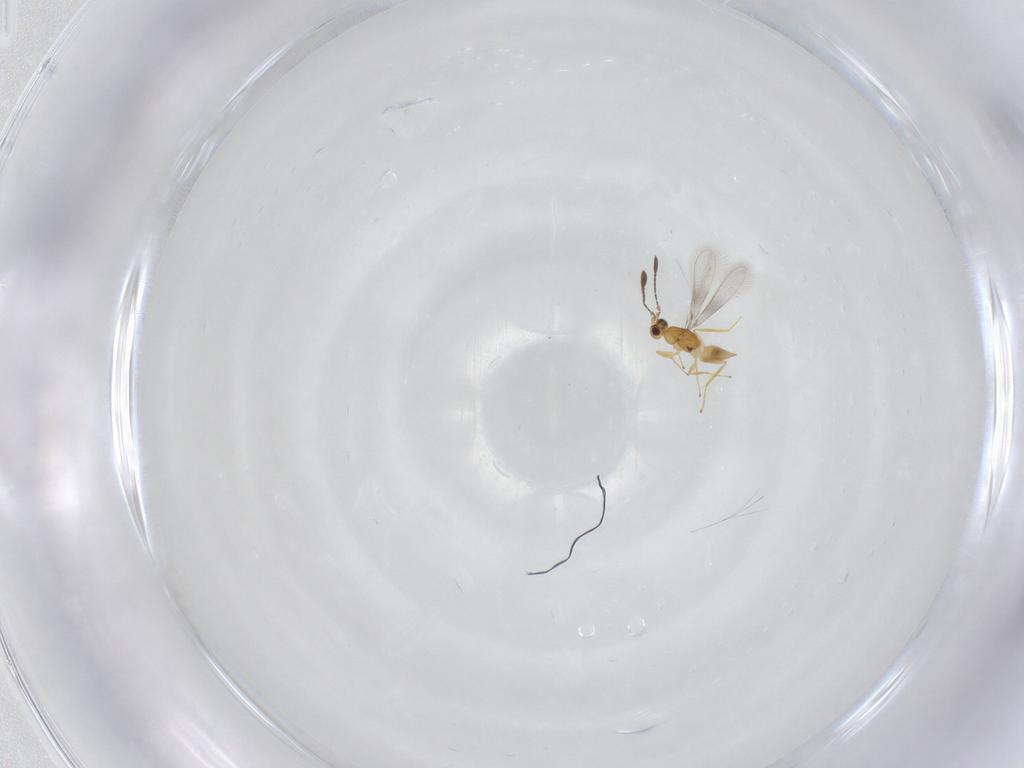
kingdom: Animalia
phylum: Arthropoda
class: Insecta
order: Hymenoptera
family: Mymaridae
